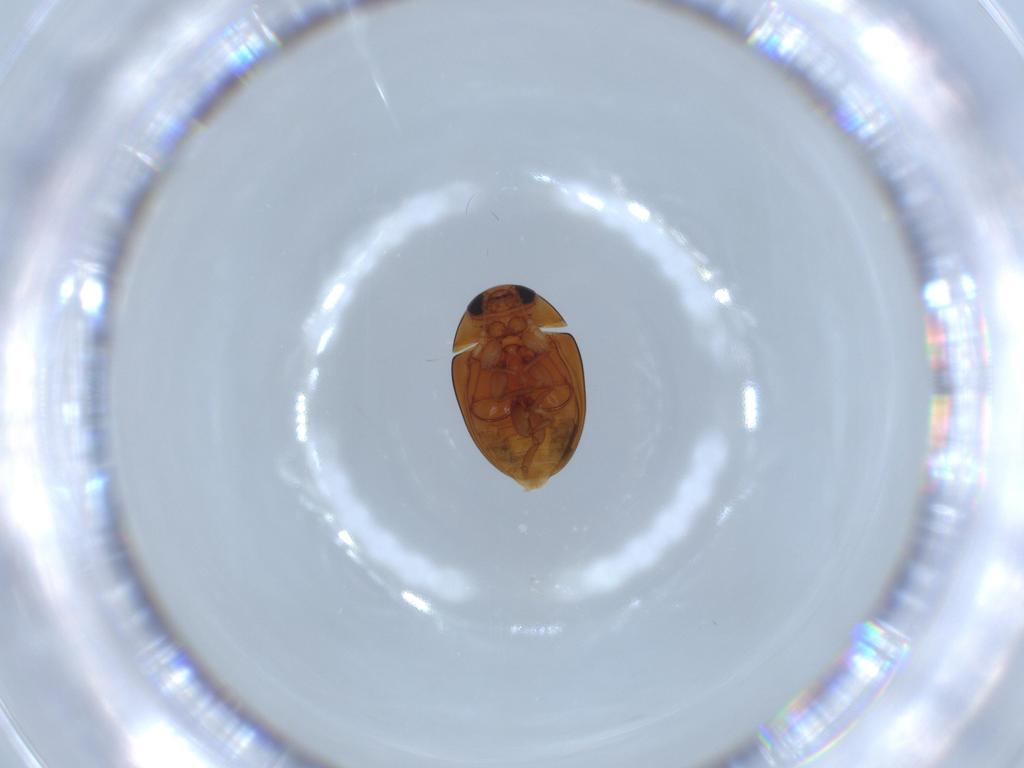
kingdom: Animalia
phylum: Arthropoda
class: Insecta
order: Coleoptera
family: Phalacridae
